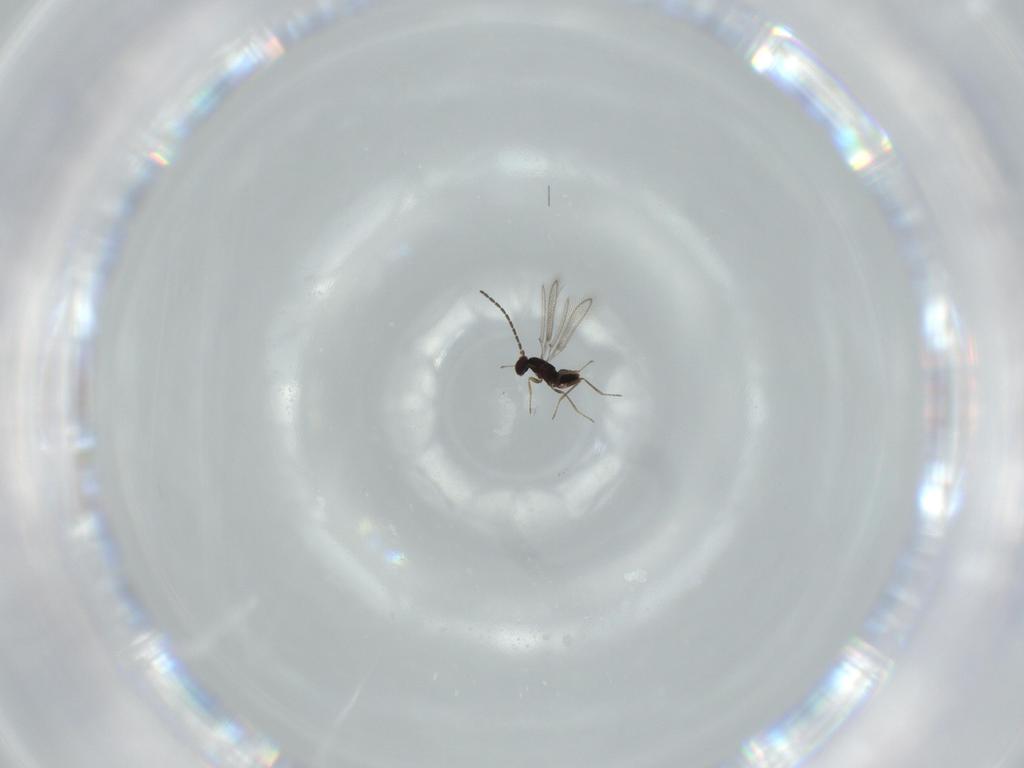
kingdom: Animalia
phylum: Arthropoda
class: Insecta
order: Diptera
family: Chironomidae
